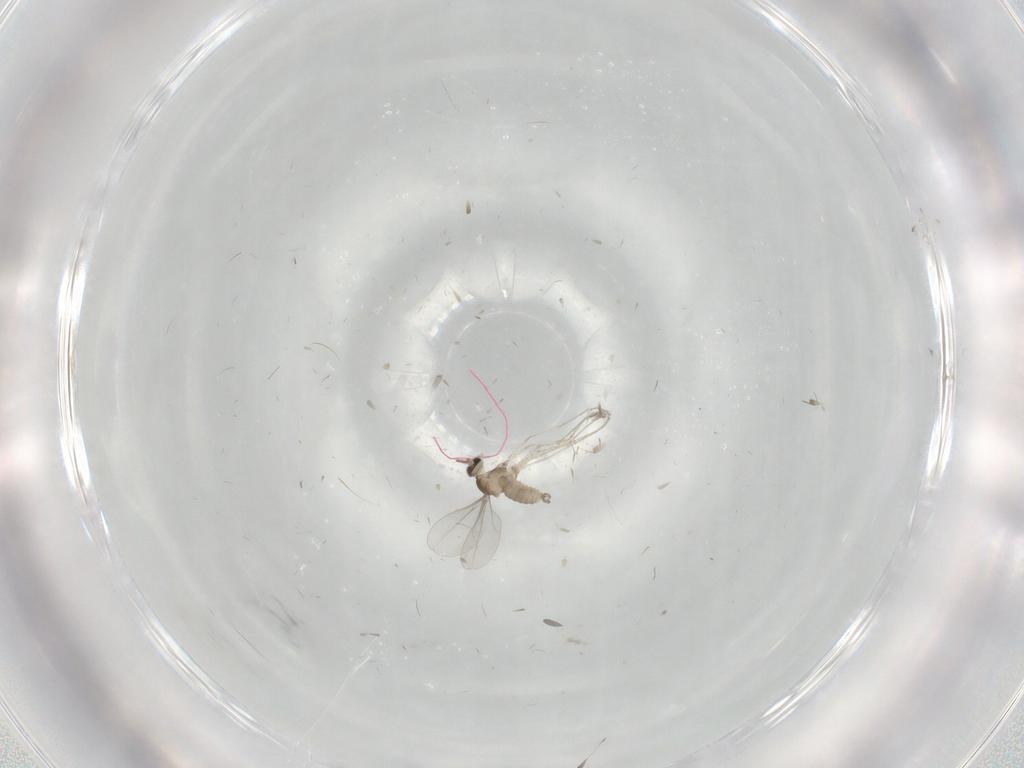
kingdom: Animalia
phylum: Arthropoda
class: Insecta
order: Diptera
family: Cecidomyiidae
